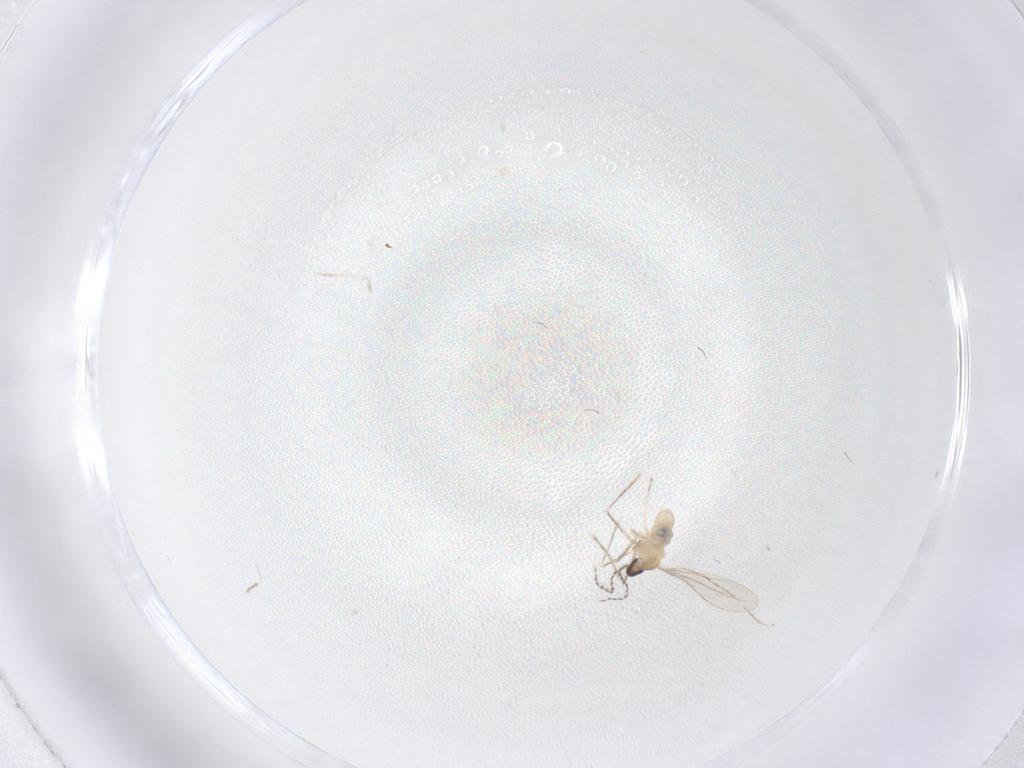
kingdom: Animalia
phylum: Arthropoda
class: Insecta
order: Diptera
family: Cecidomyiidae
